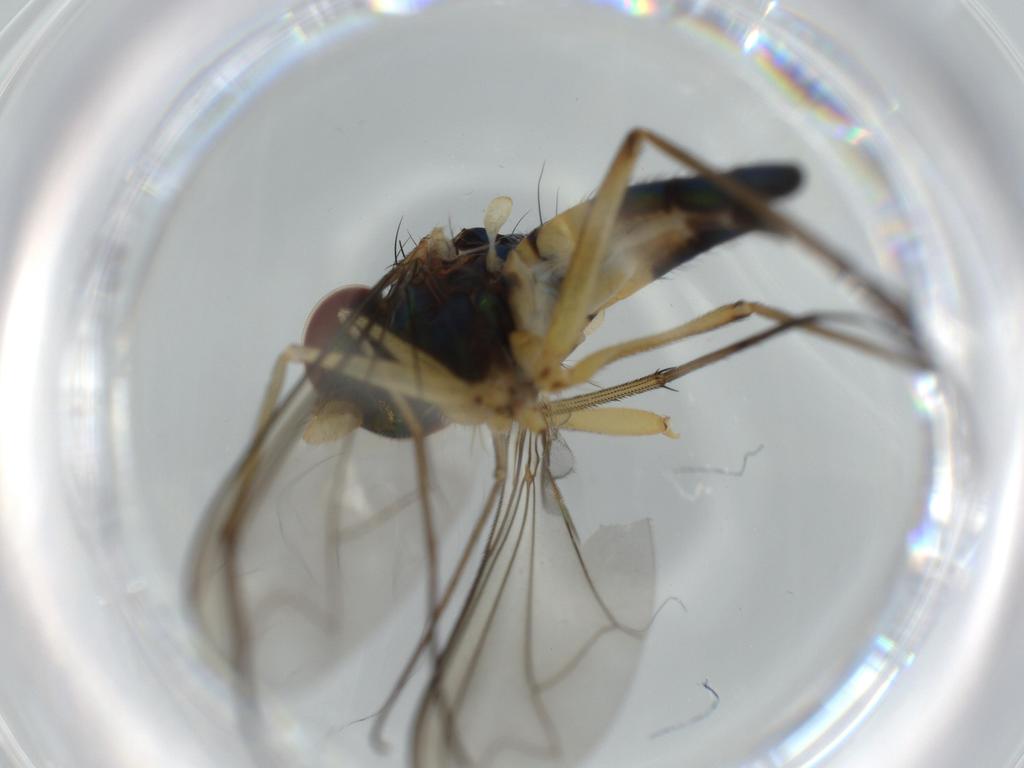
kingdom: Animalia
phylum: Arthropoda
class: Insecta
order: Diptera
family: Dolichopodidae
